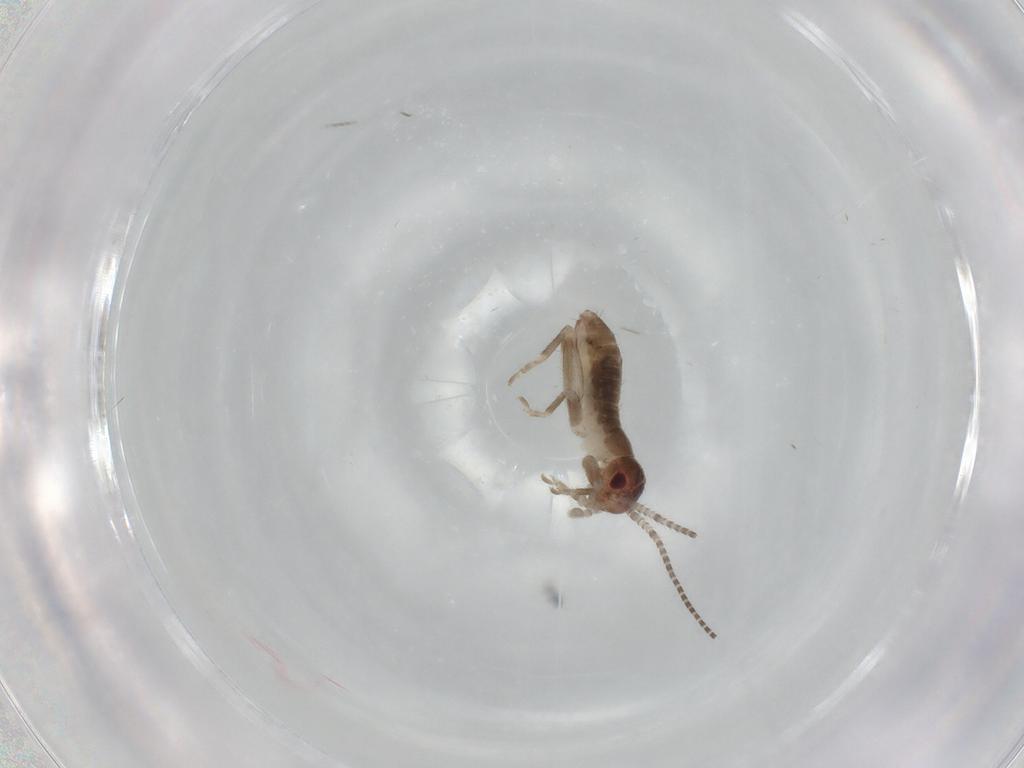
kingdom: Animalia
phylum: Arthropoda
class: Insecta
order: Orthoptera
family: Mogoplistidae
